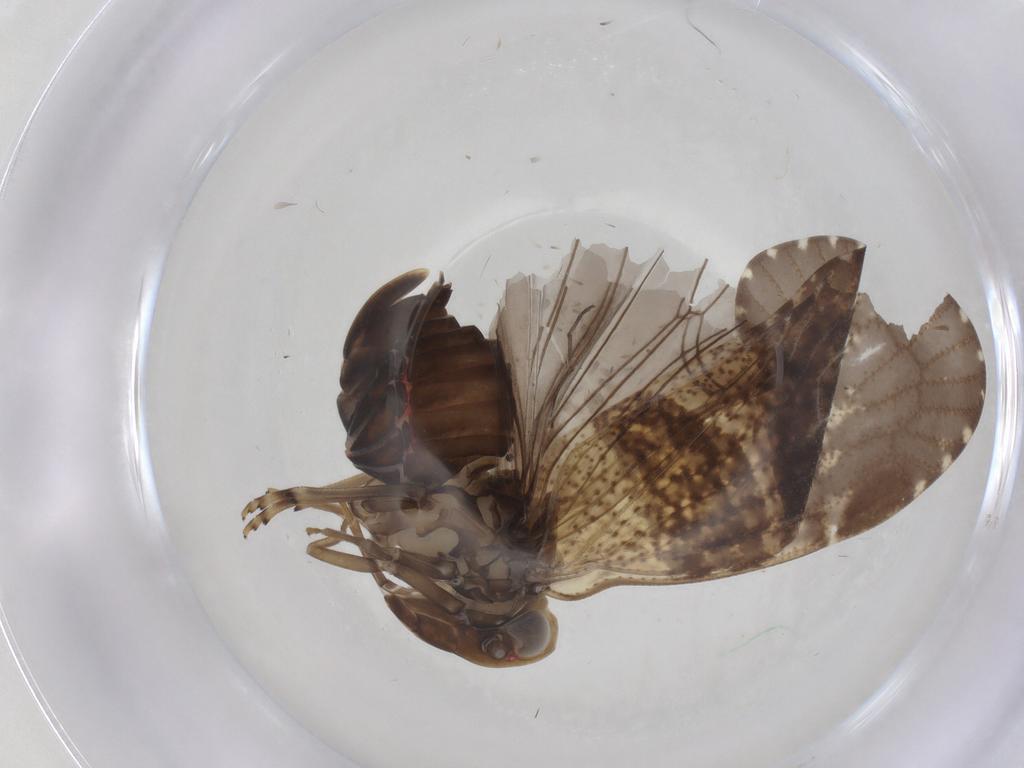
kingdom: Animalia
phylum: Arthropoda
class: Insecta
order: Hemiptera
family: Cixiidae
